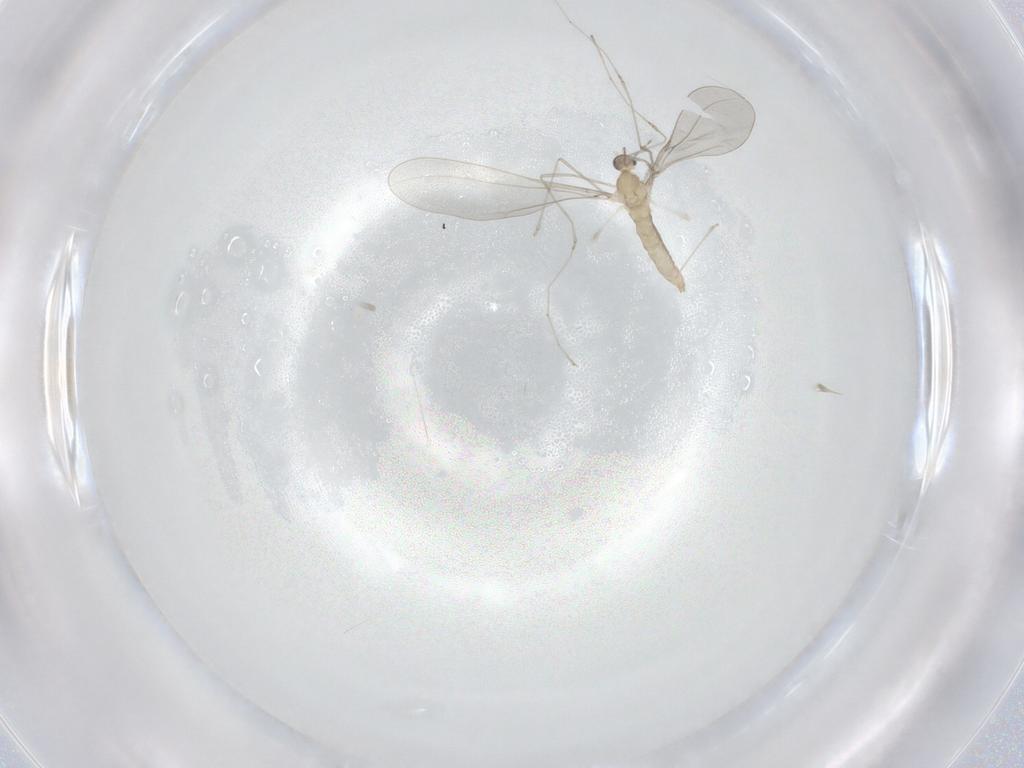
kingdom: Animalia
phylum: Arthropoda
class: Insecta
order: Diptera
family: Cecidomyiidae
